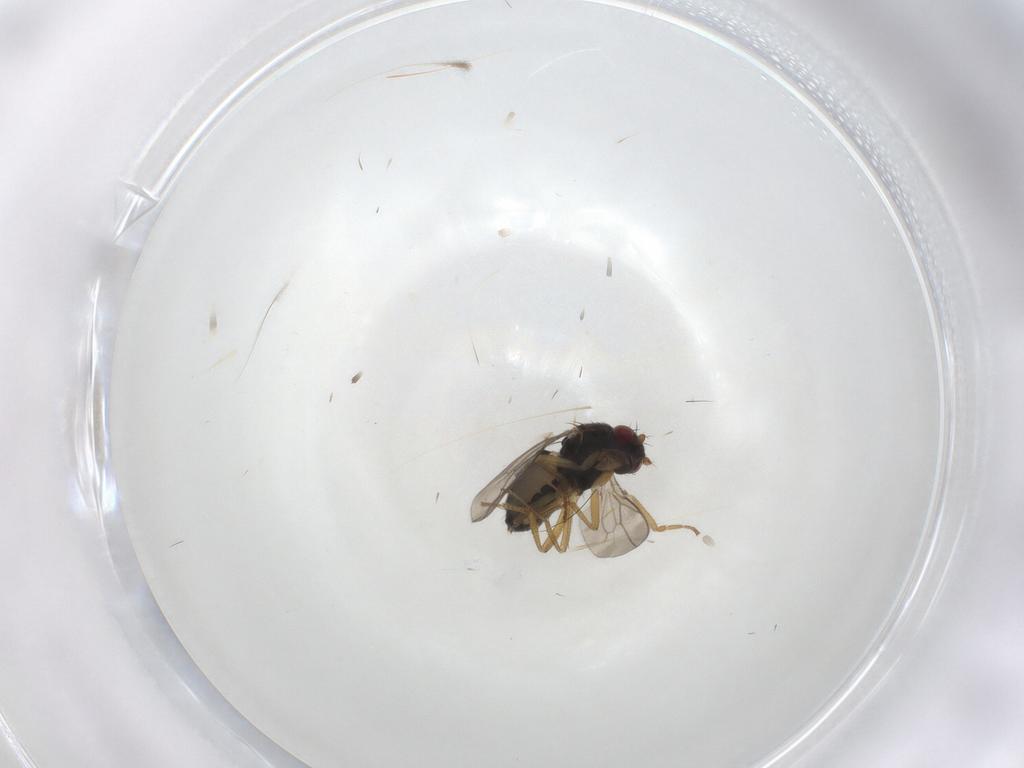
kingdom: Animalia
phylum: Arthropoda
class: Insecta
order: Diptera
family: Sphaeroceridae
